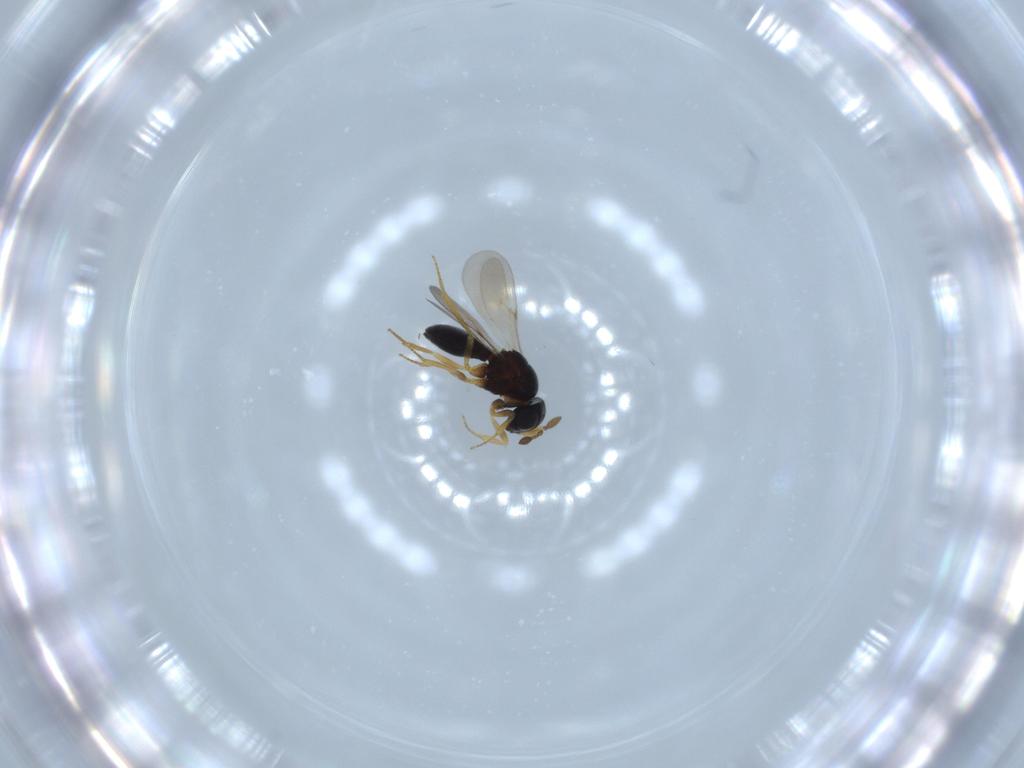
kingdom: Animalia
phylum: Arthropoda
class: Insecta
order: Hymenoptera
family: Scelionidae
